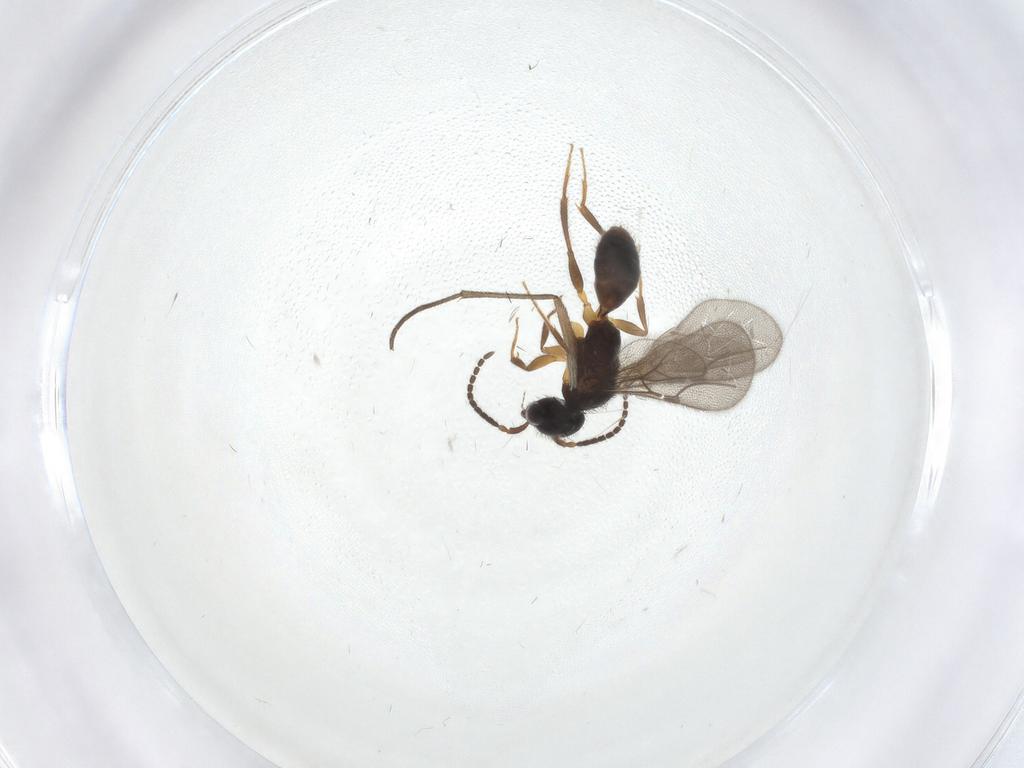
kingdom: Animalia
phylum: Arthropoda
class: Insecta
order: Hymenoptera
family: Bethylidae
